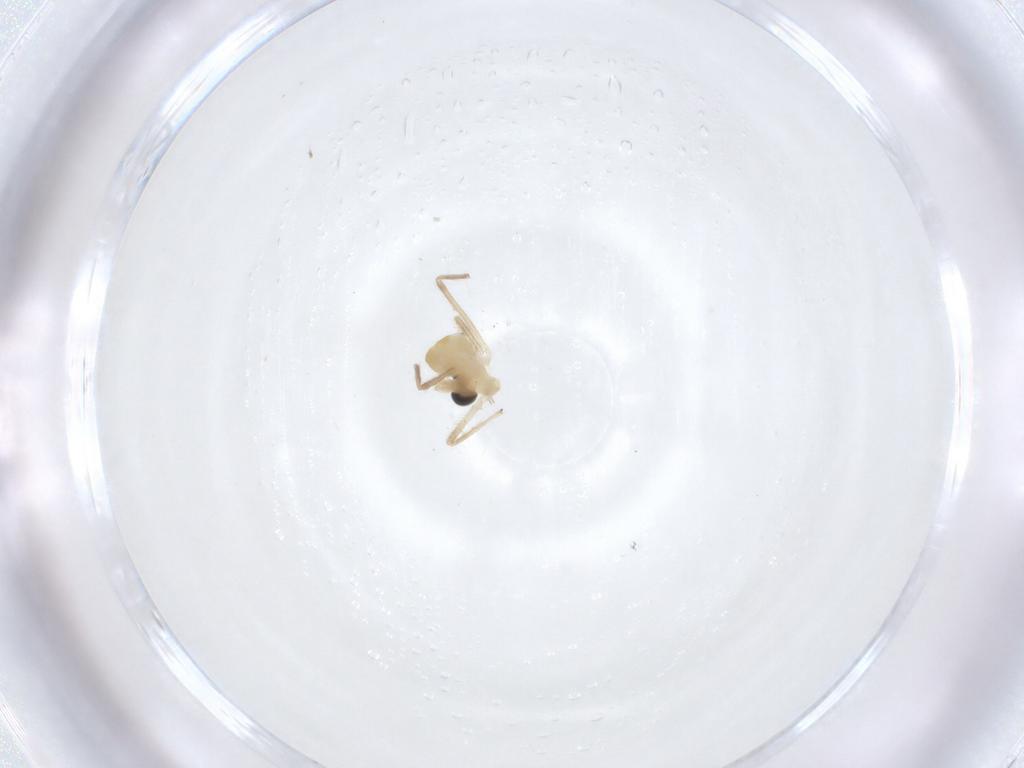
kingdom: Animalia
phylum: Arthropoda
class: Insecta
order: Diptera
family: Chironomidae
